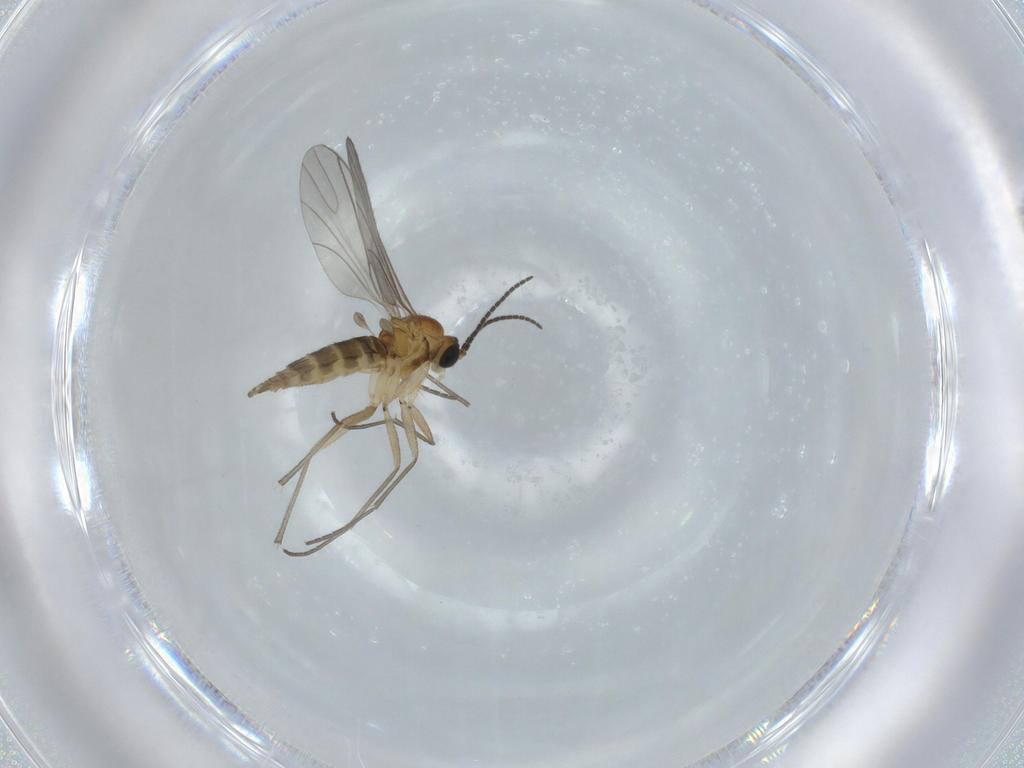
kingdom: Animalia
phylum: Arthropoda
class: Insecta
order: Diptera
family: Sciaridae
